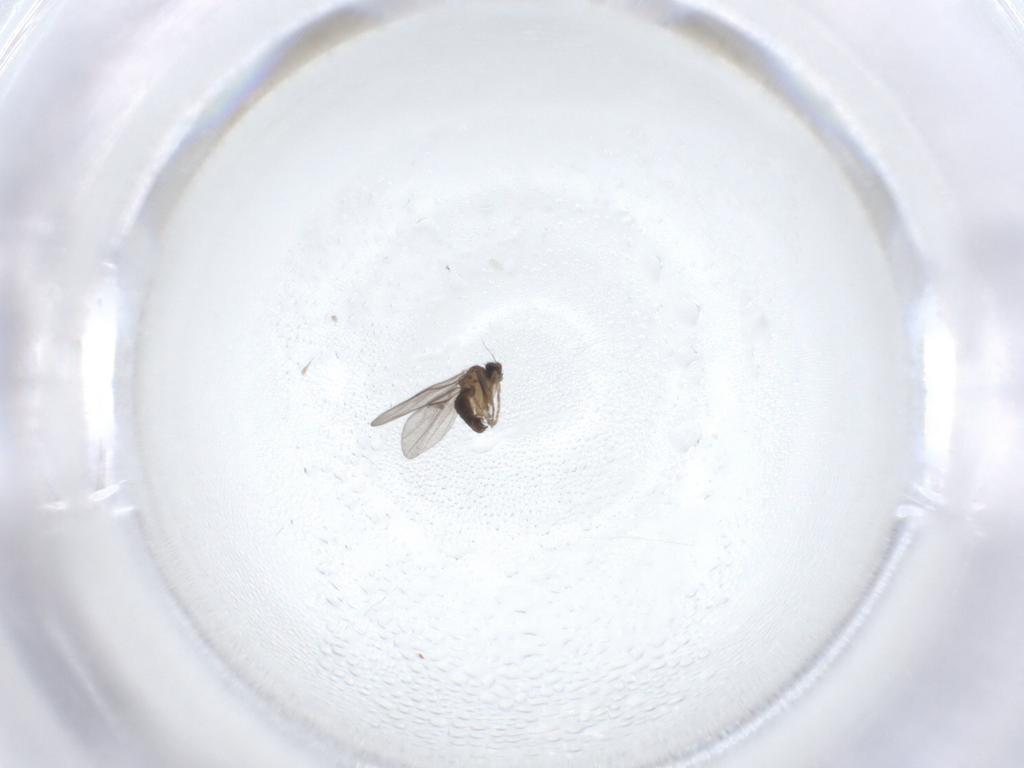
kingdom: Animalia
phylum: Arthropoda
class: Insecta
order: Diptera
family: Phoridae
